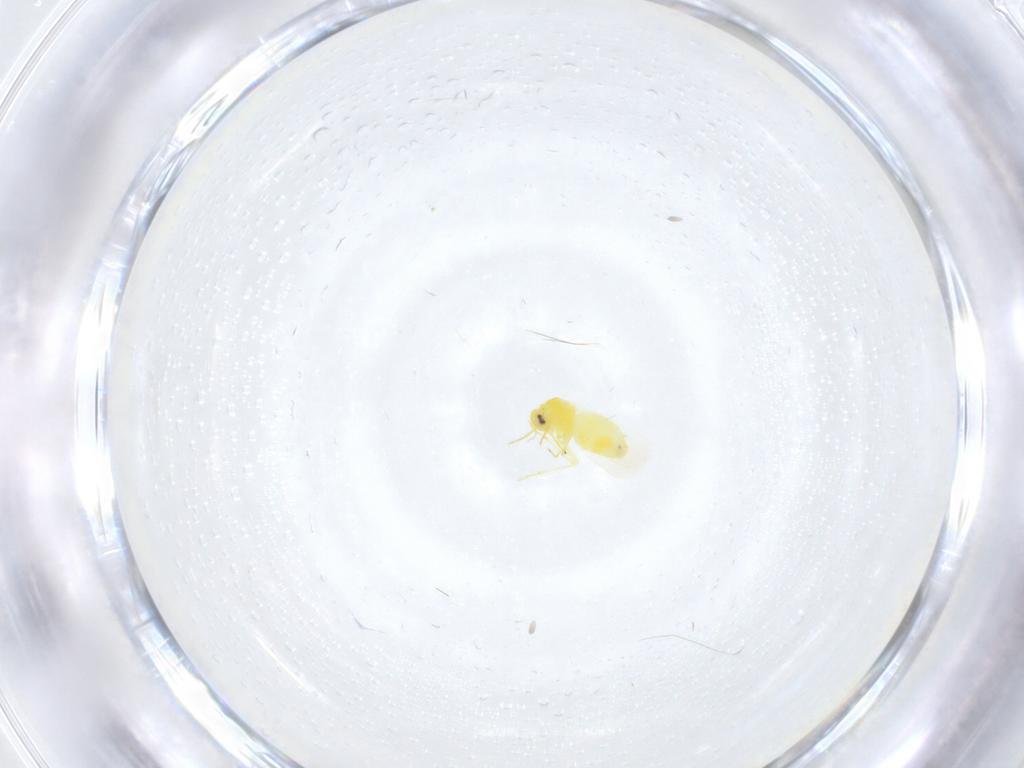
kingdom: Animalia
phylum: Arthropoda
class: Insecta
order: Hemiptera
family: Aleyrodidae
